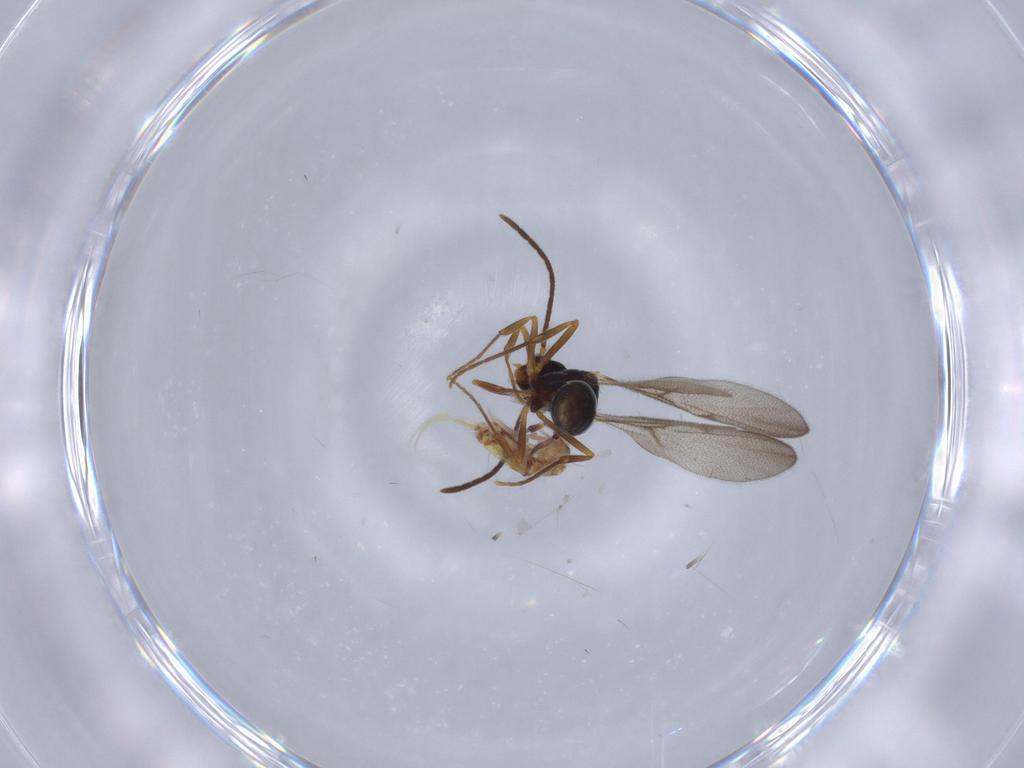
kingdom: Animalia
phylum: Arthropoda
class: Insecta
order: Hymenoptera
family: Formicidae
